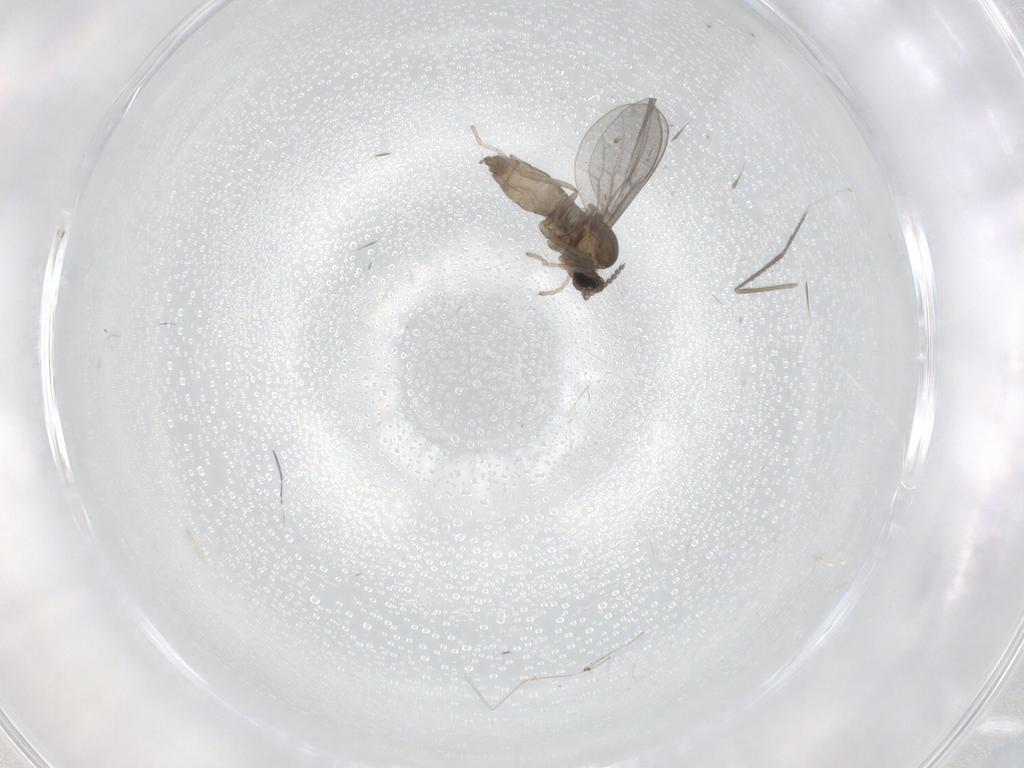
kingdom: Animalia
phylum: Arthropoda
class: Insecta
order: Diptera
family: Cecidomyiidae
